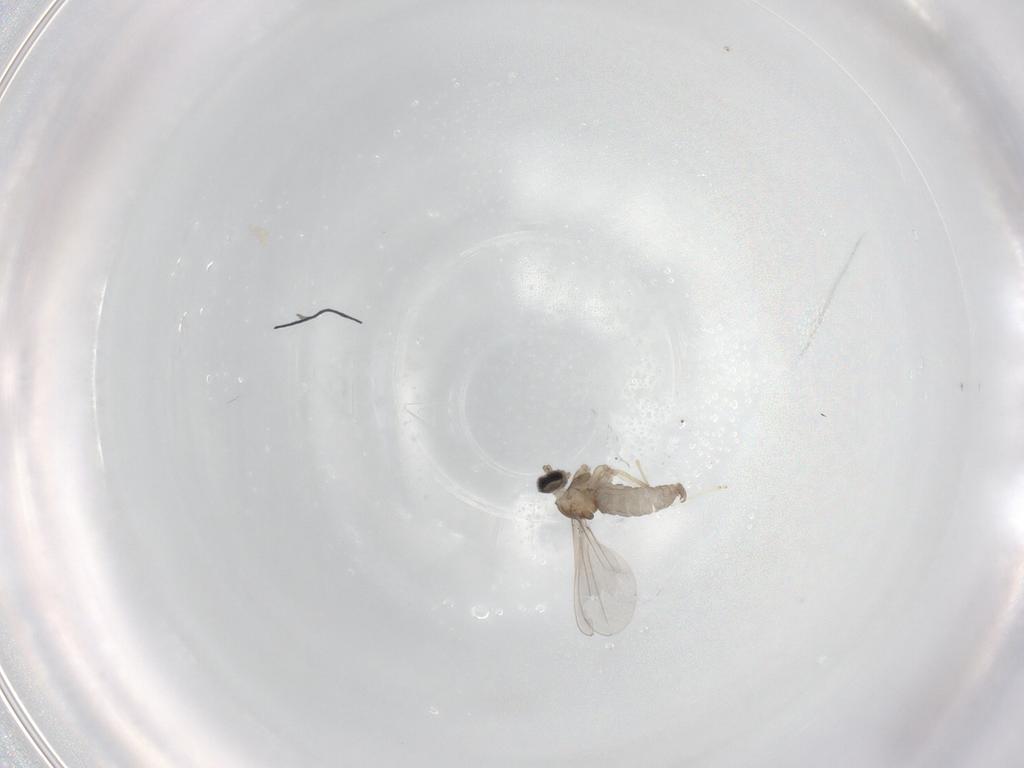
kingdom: Animalia
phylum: Arthropoda
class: Insecta
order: Diptera
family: Cecidomyiidae
